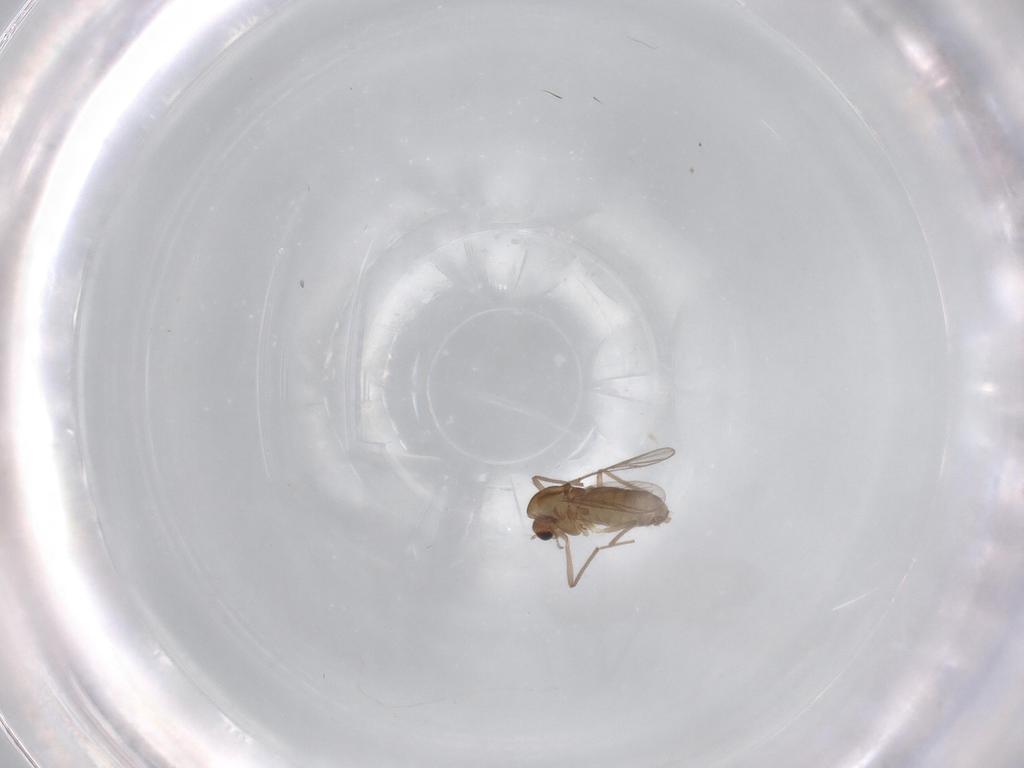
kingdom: Animalia
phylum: Arthropoda
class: Insecta
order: Diptera
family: Chironomidae
